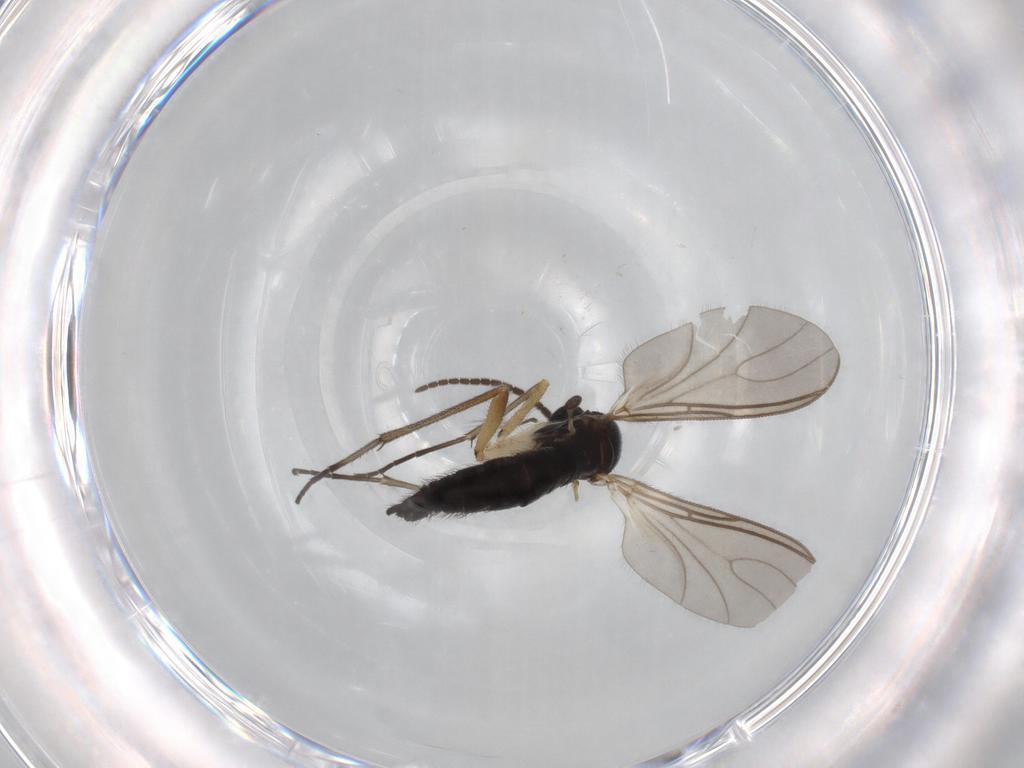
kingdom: Animalia
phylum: Arthropoda
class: Insecta
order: Diptera
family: Sciaridae
